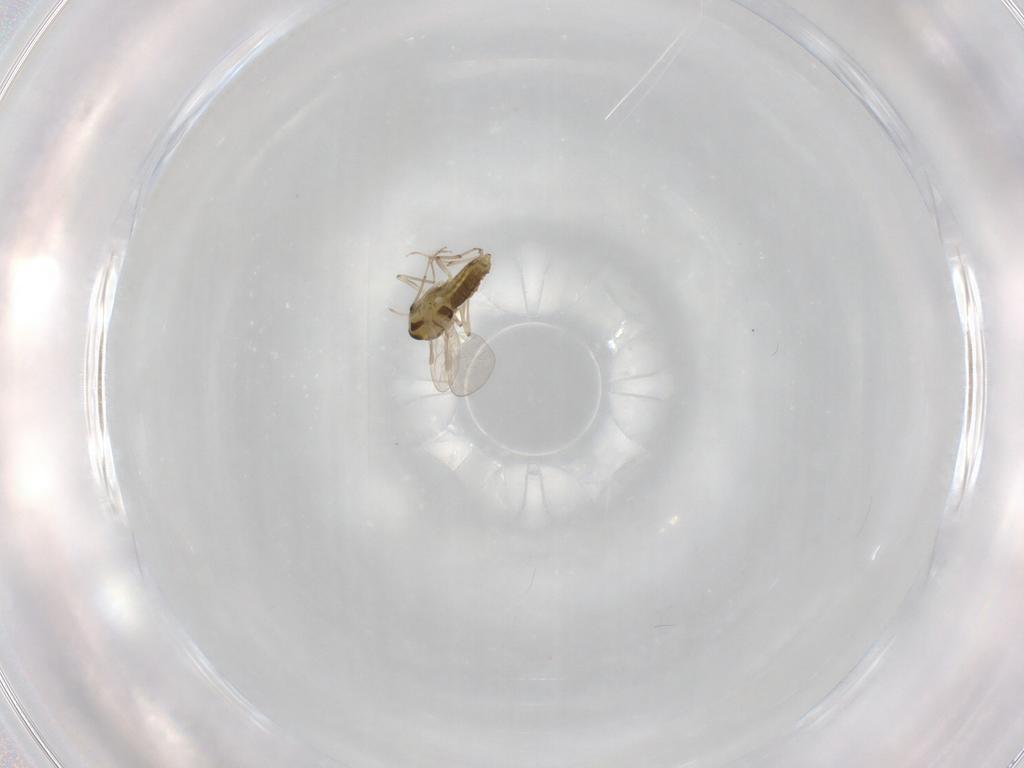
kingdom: Animalia
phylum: Arthropoda
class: Insecta
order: Diptera
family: Chironomidae
